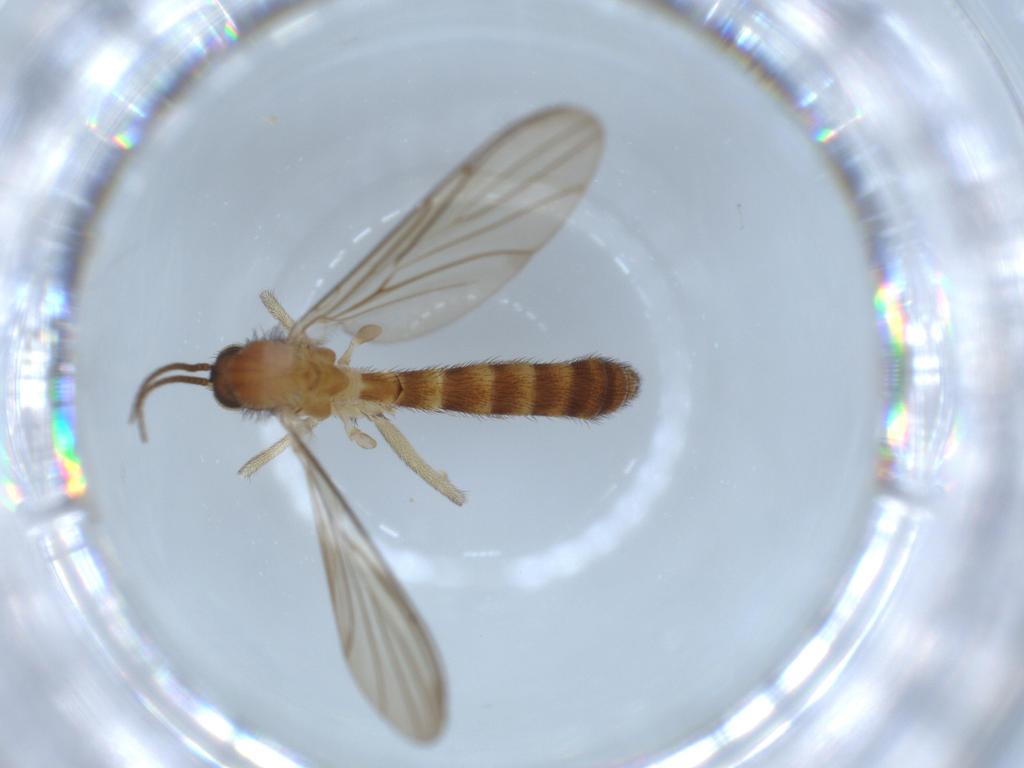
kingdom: Animalia
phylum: Arthropoda
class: Insecta
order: Diptera
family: Sciaridae
